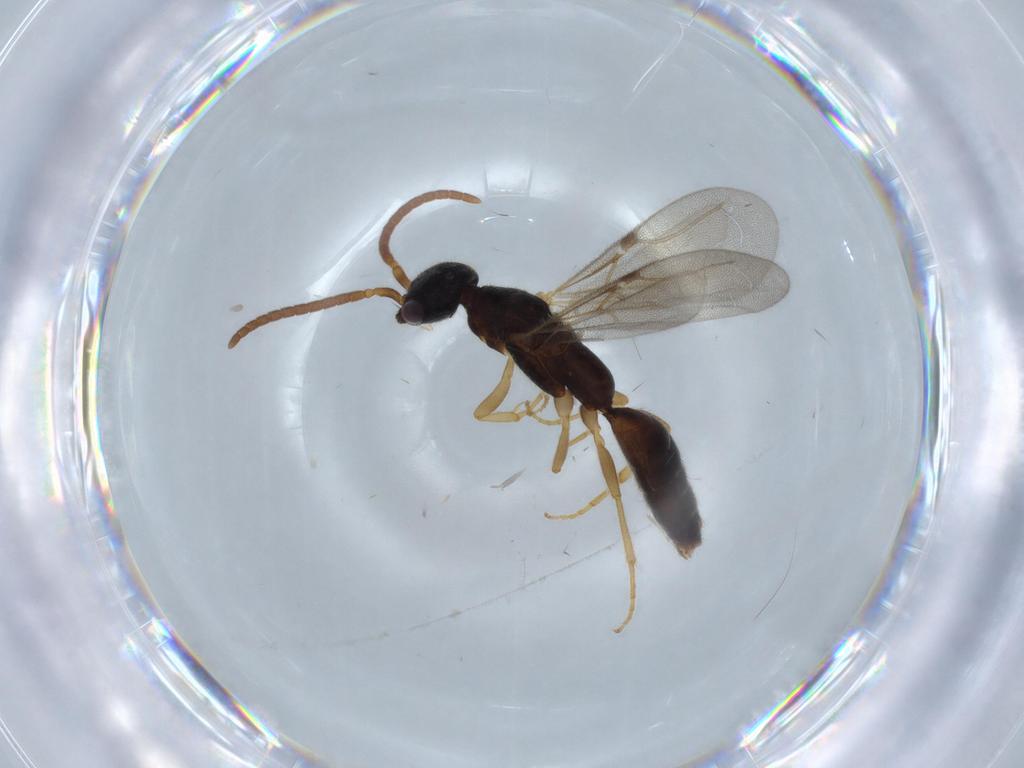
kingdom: Animalia
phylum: Arthropoda
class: Insecta
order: Hymenoptera
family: Bethylidae
